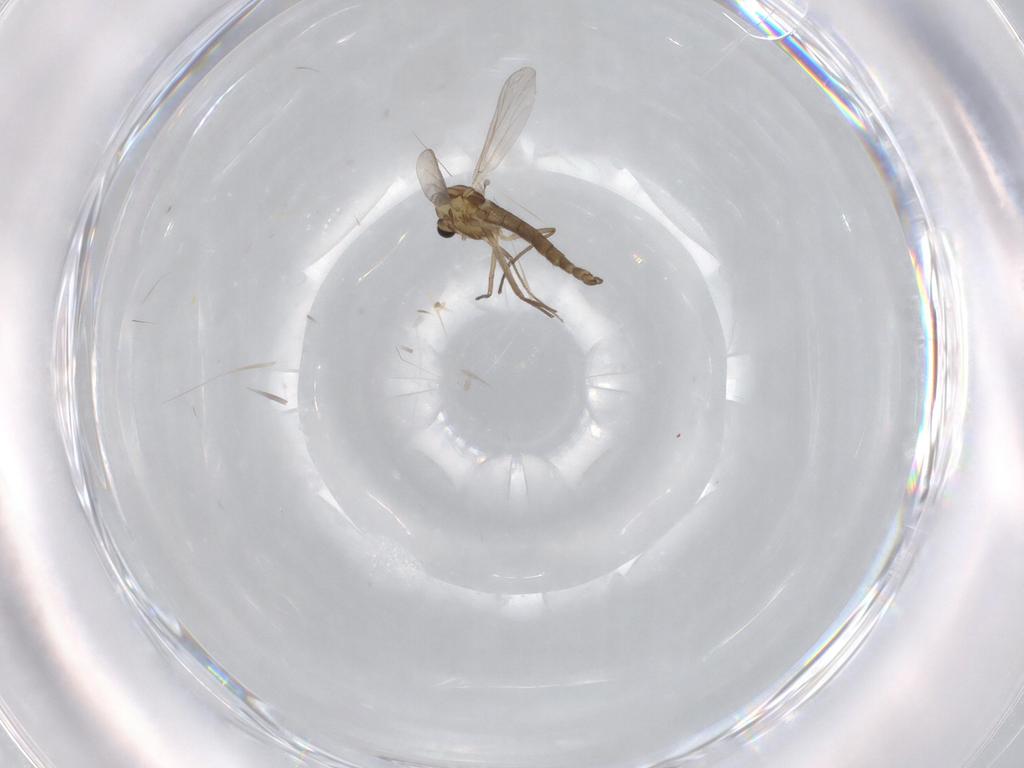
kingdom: Animalia
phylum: Arthropoda
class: Insecta
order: Diptera
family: Chironomidae
